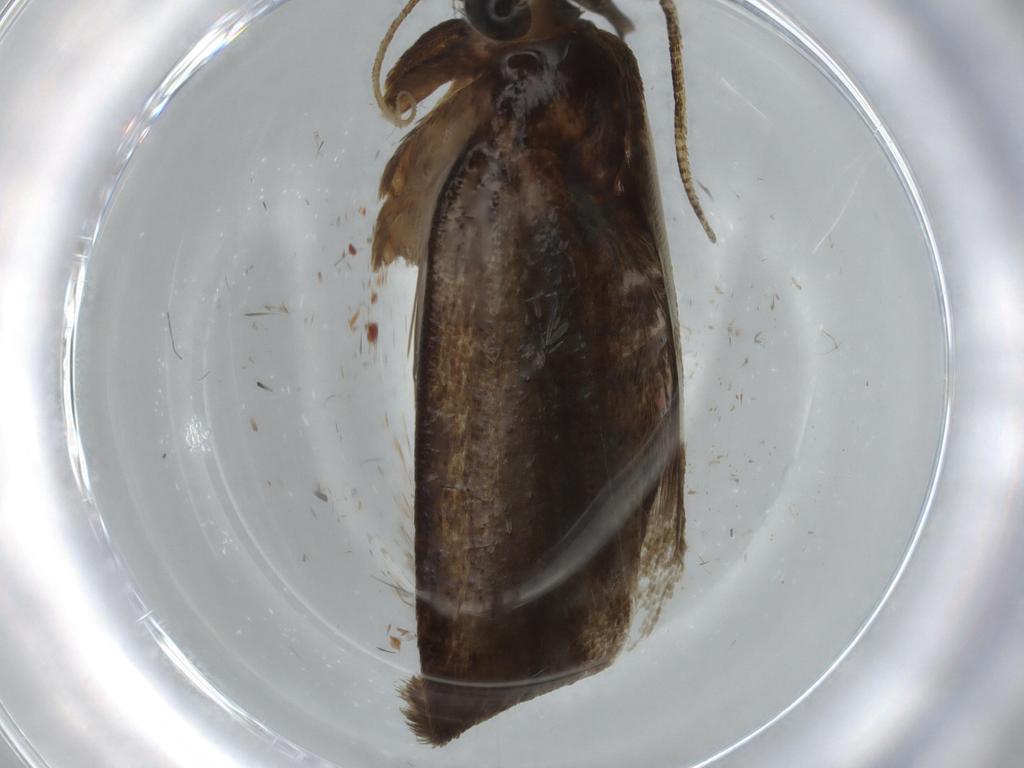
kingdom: Animalia
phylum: Arthropoda
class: Insecta
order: Lepidoptera
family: Autostichidae
